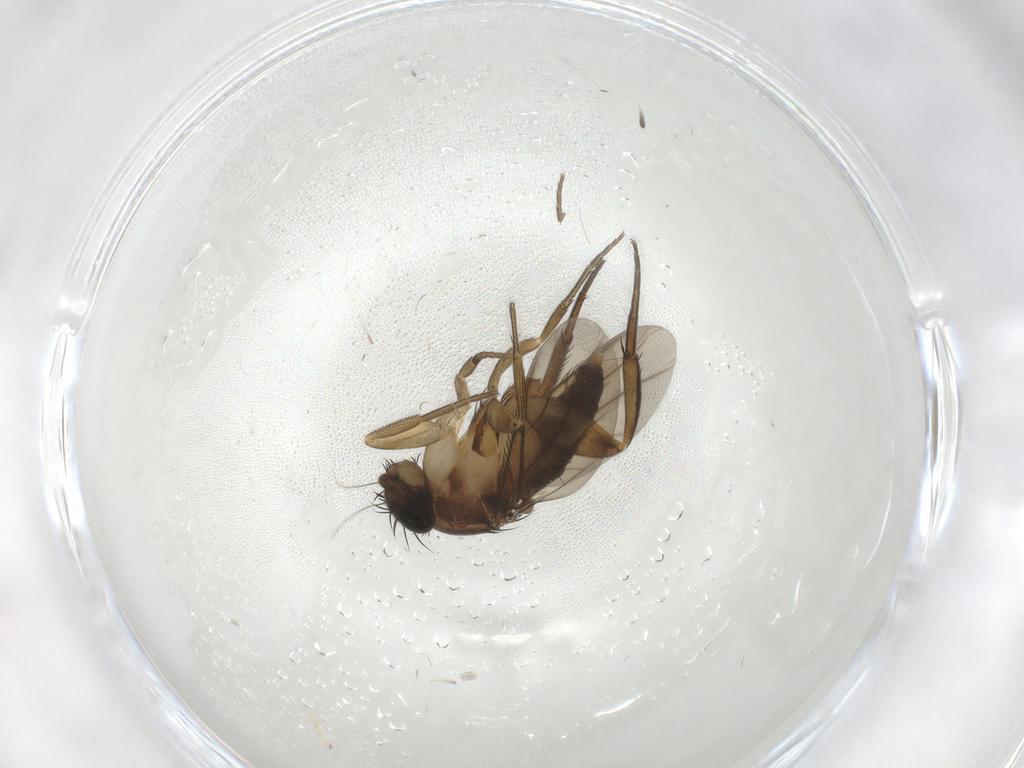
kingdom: Animalia
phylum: Arthropoda
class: Insecta
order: Diptera
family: Phoridae
